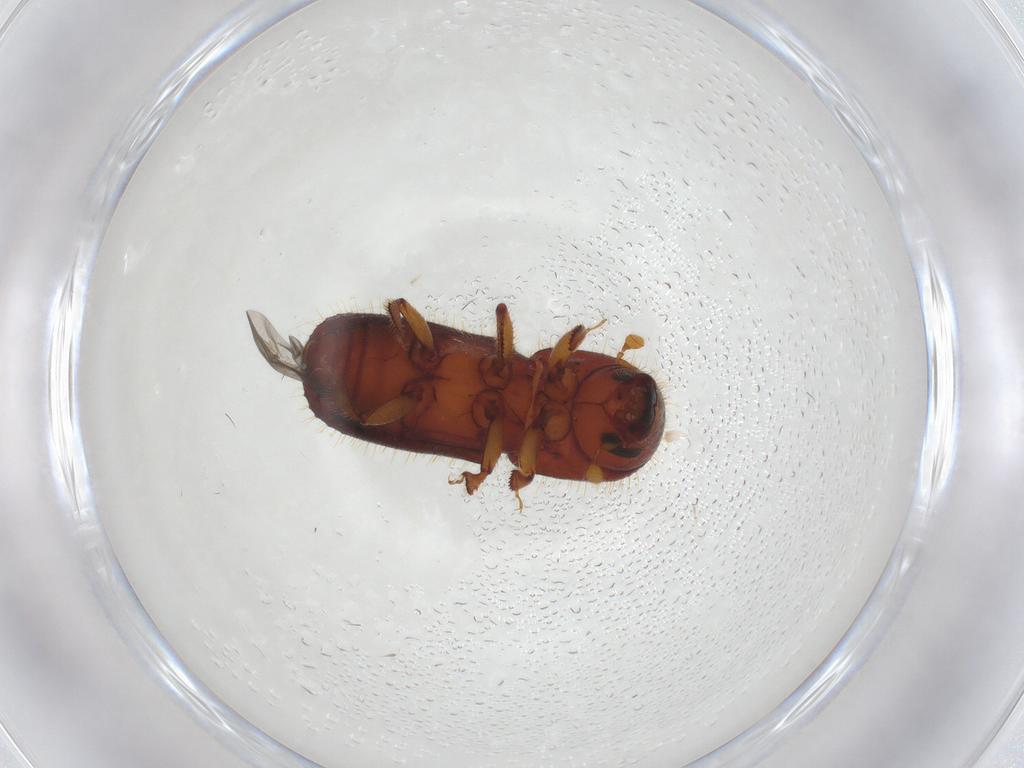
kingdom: Animalia
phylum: Arthropoda
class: Insecta
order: Coleoptera
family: Curculionidae
